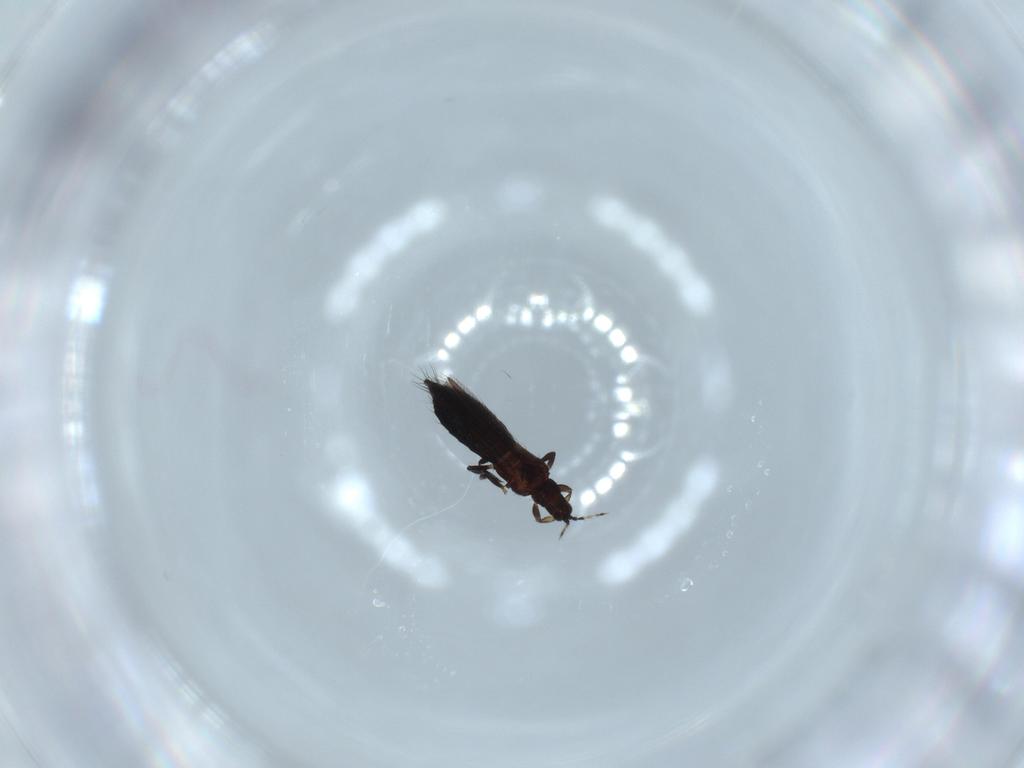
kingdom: Animalia
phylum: Arthropoda
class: Insecta
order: Thysanoptera
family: Thripidae
